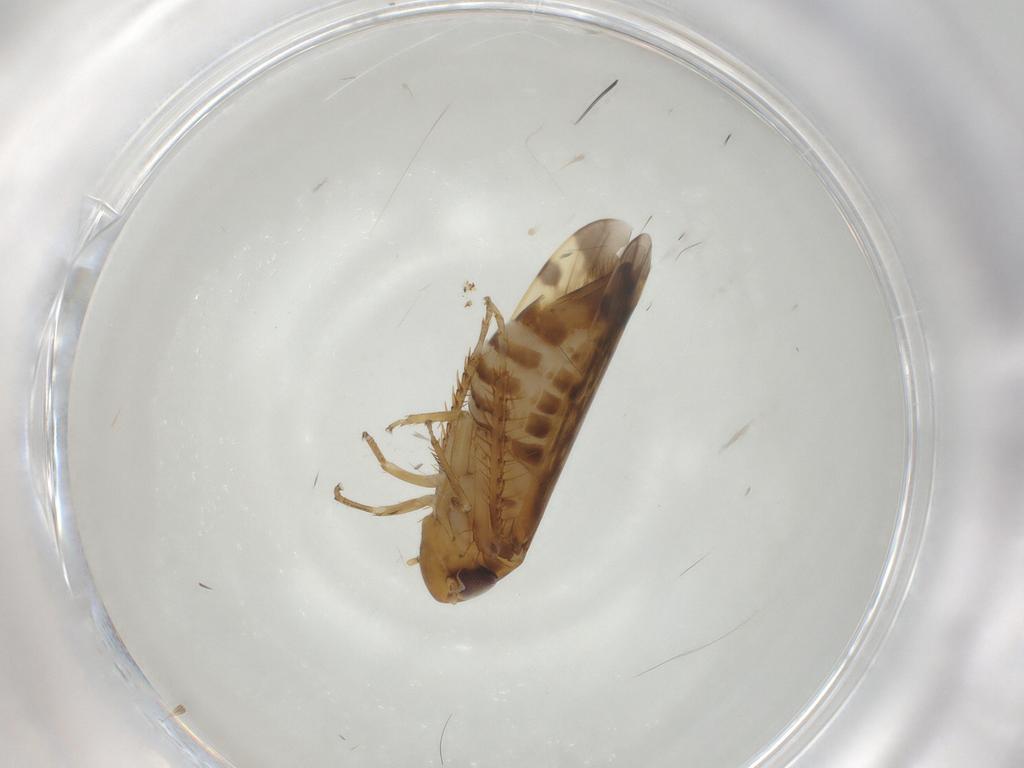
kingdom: Animalia
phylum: Arthropoda
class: Insecta
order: Hemiptera
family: Cicadellidae
